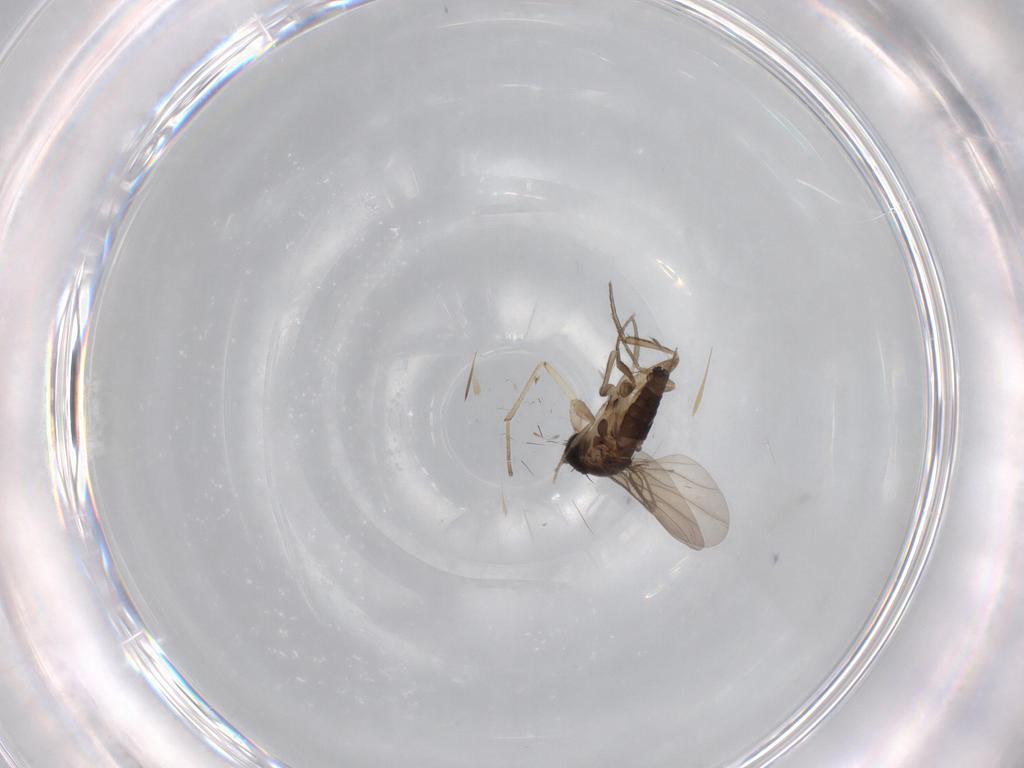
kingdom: Animalia
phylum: Arthropoda
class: Insecta
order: Diptera
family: Phoridae
